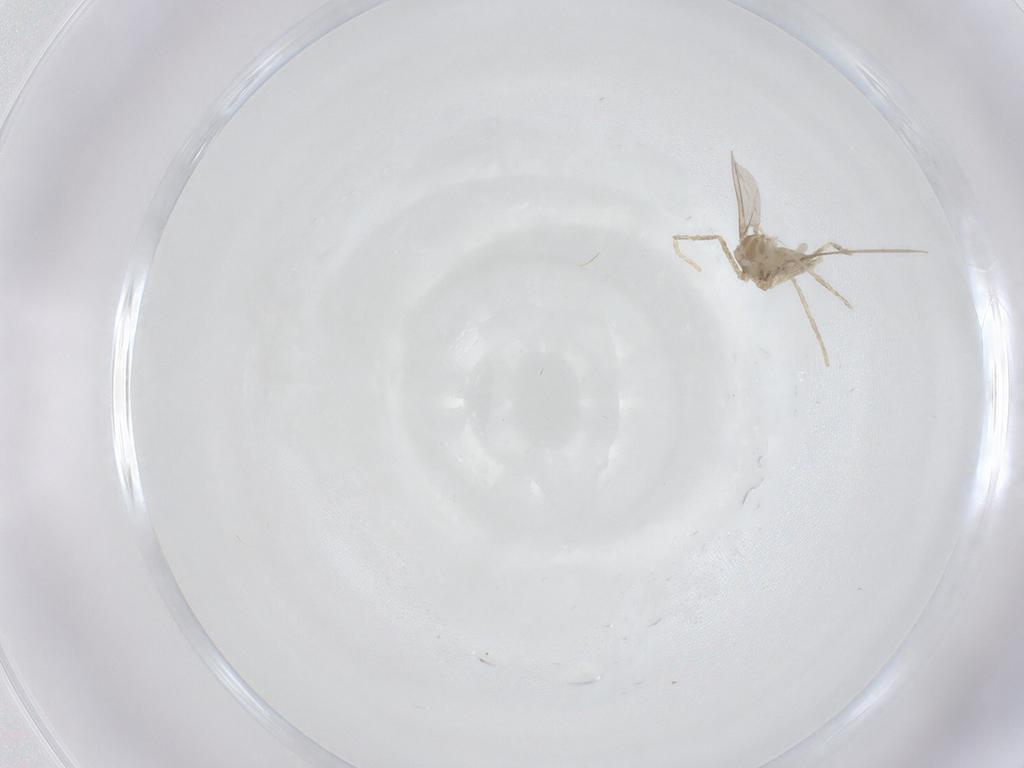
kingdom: Animalia
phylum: Arthropoda
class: Insecta
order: Diptera
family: Cecidomyiidae
